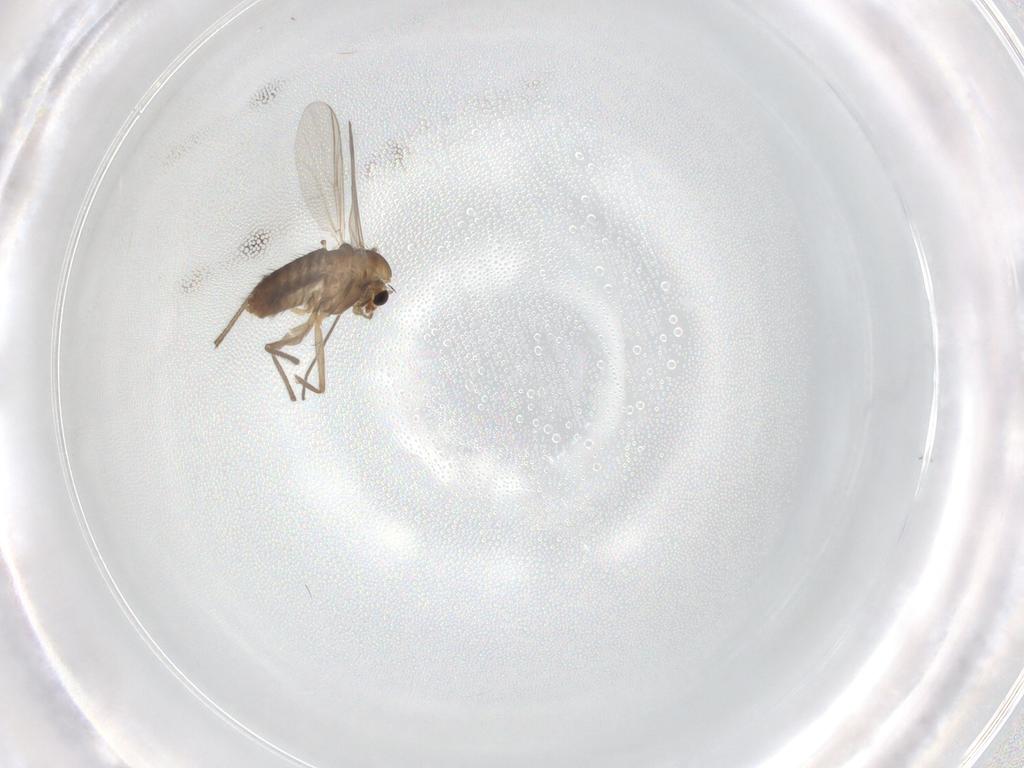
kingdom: Animalia
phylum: Arthropoda
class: Insecta
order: Diptera
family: Chironomidae
